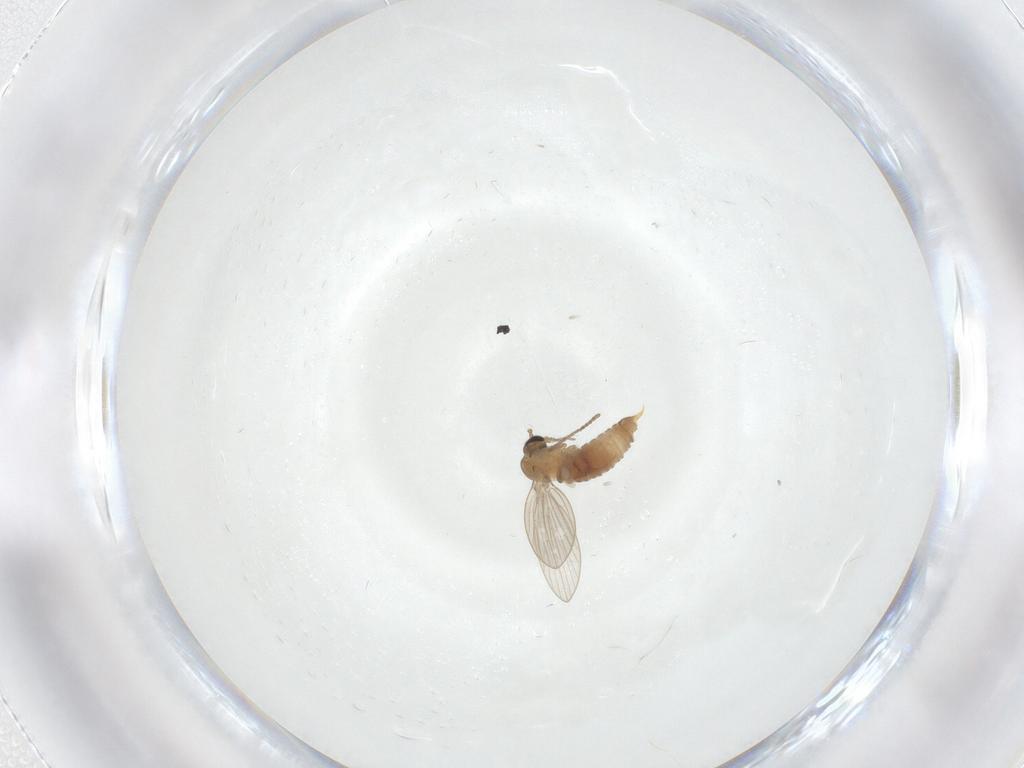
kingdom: Animalia
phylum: Arthropoda
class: Insecta
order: Diptera
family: Psychodidae
